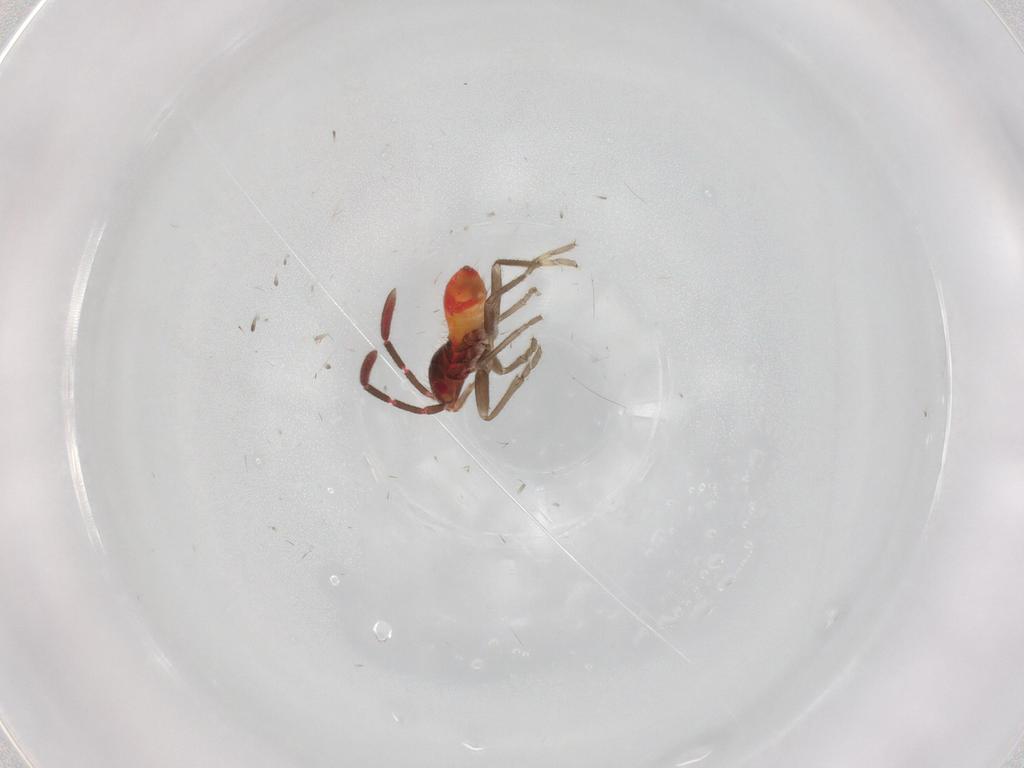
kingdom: Animalia
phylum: Arthropoda
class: Insecta
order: Hemiptera
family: Rhyparochromidae
